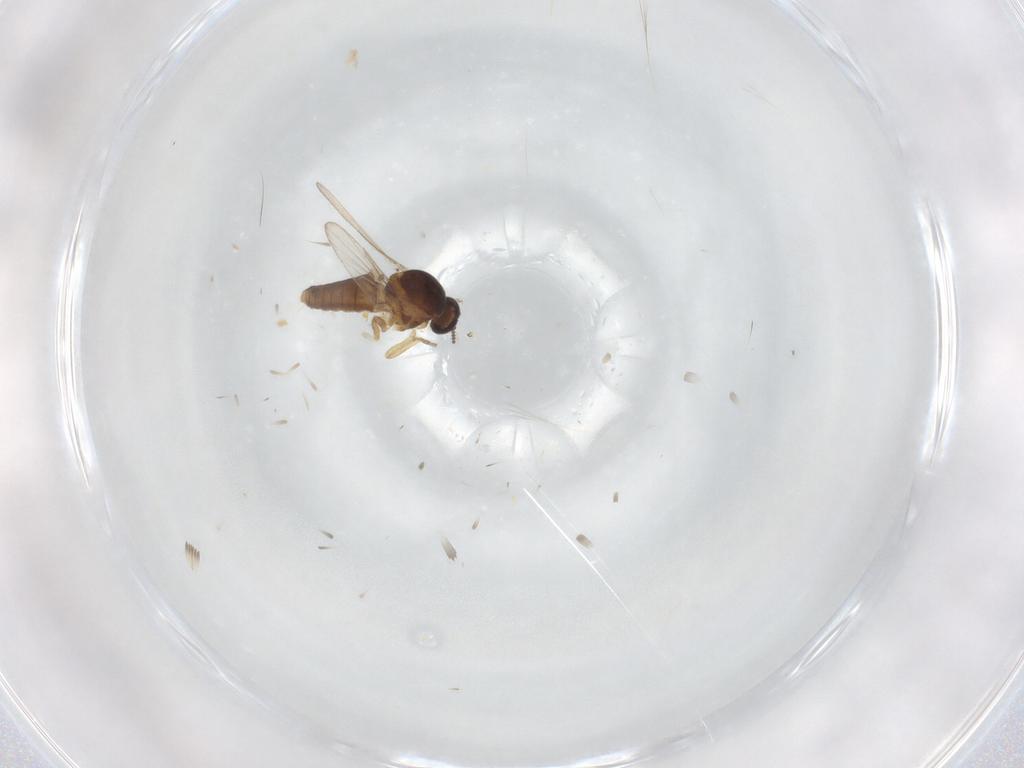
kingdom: Animalia
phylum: Arthropoda
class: Insecta
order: Diptera
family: Ceratopogonidae
